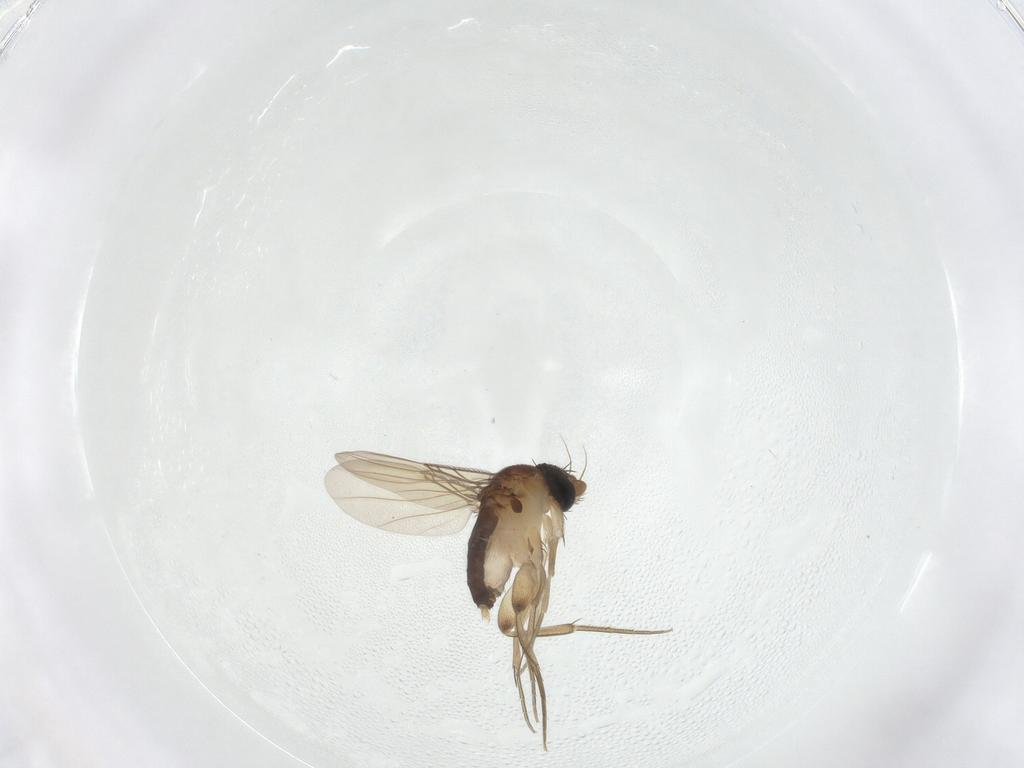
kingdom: Animalia
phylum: Arthropoda
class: Insecta
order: Diptera
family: Phoridae
